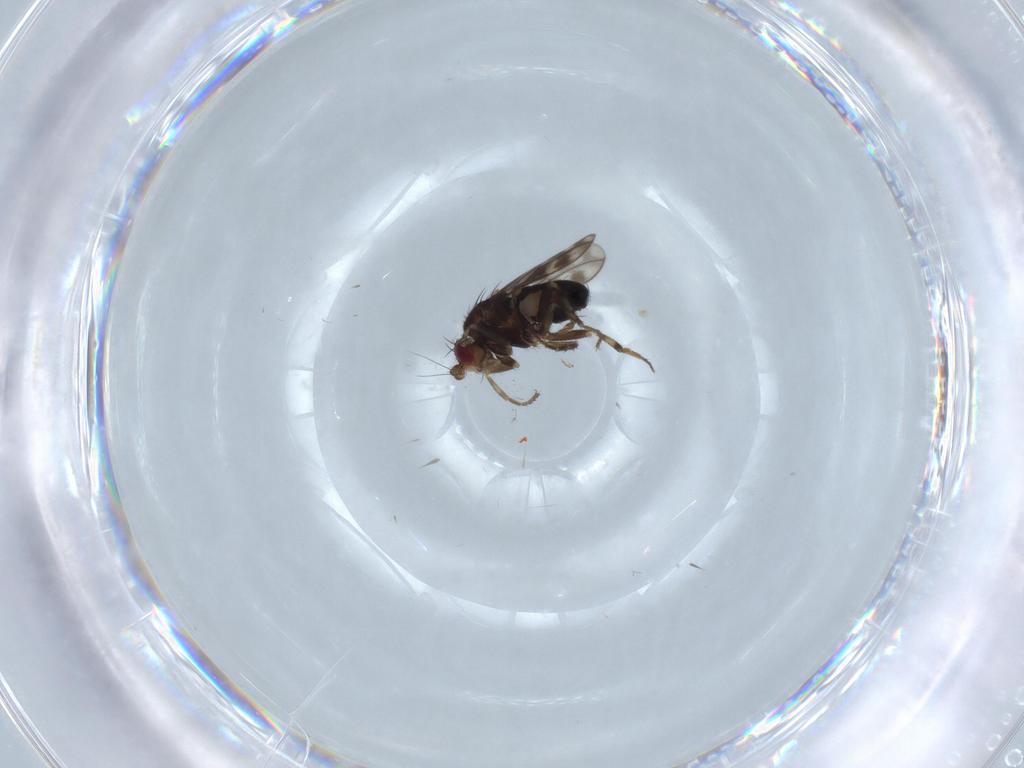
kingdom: Animalia
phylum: Arthropoda
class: Insecta
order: Diptera
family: Cecidomyiidae
